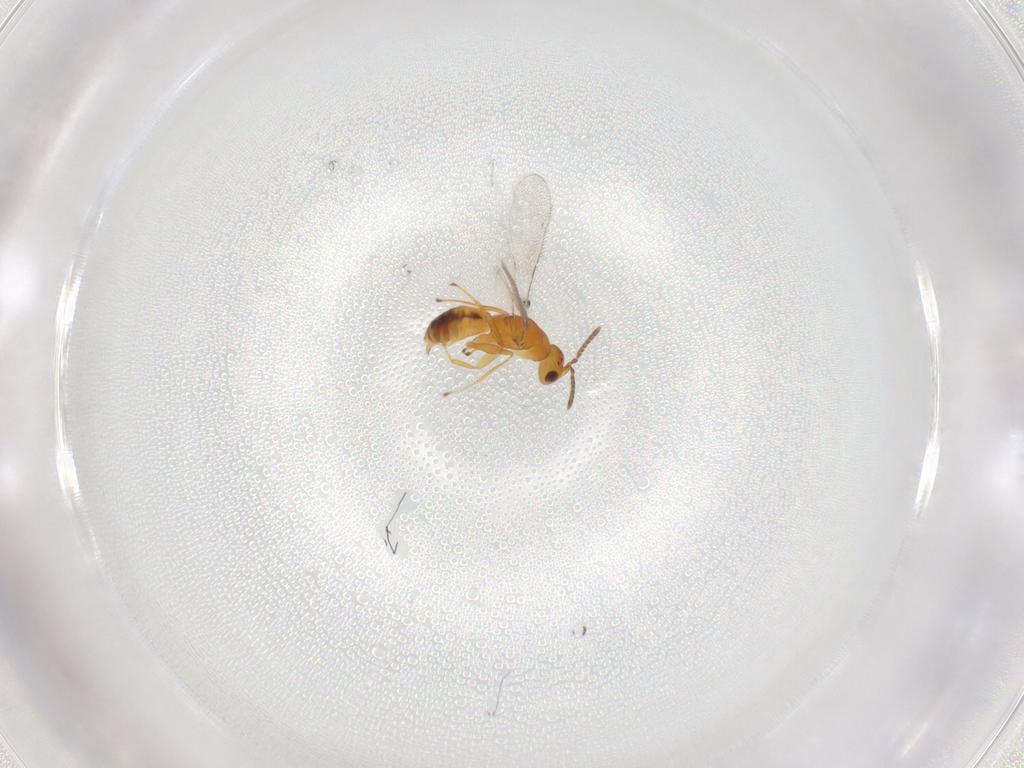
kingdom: Animalia
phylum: Arthropoda
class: Insecta
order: Hymenoptera
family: Pteromalidae
